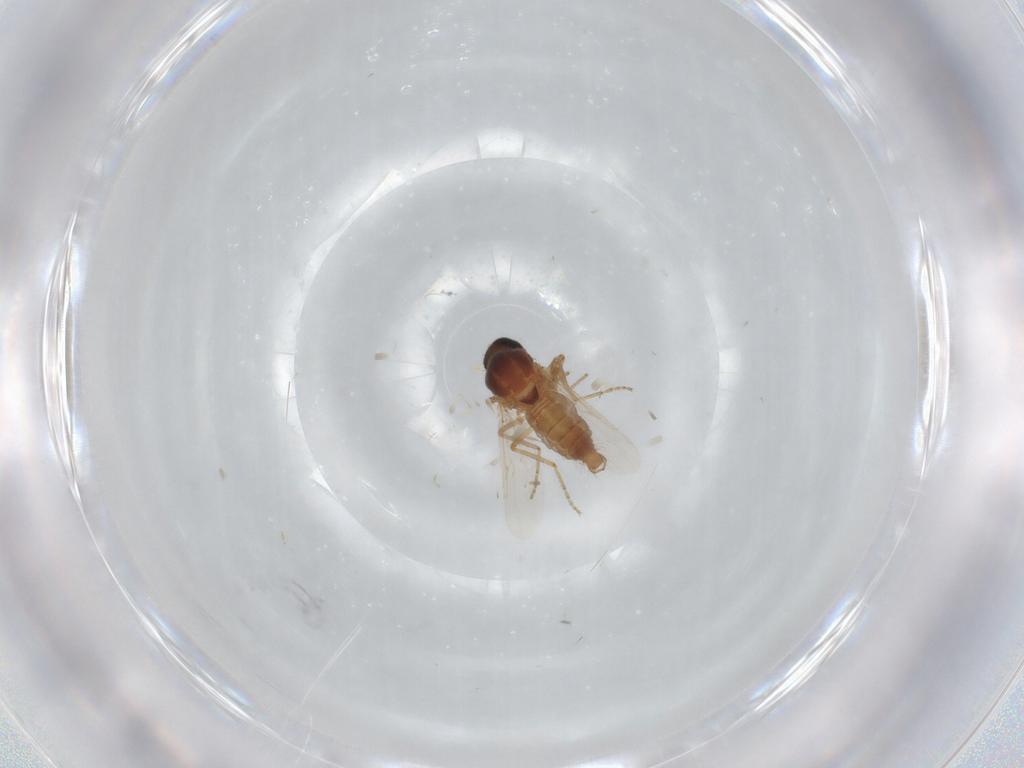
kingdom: Animalia
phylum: Arthropoda
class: Insecta
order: Diptera
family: Ceratopogonidae
